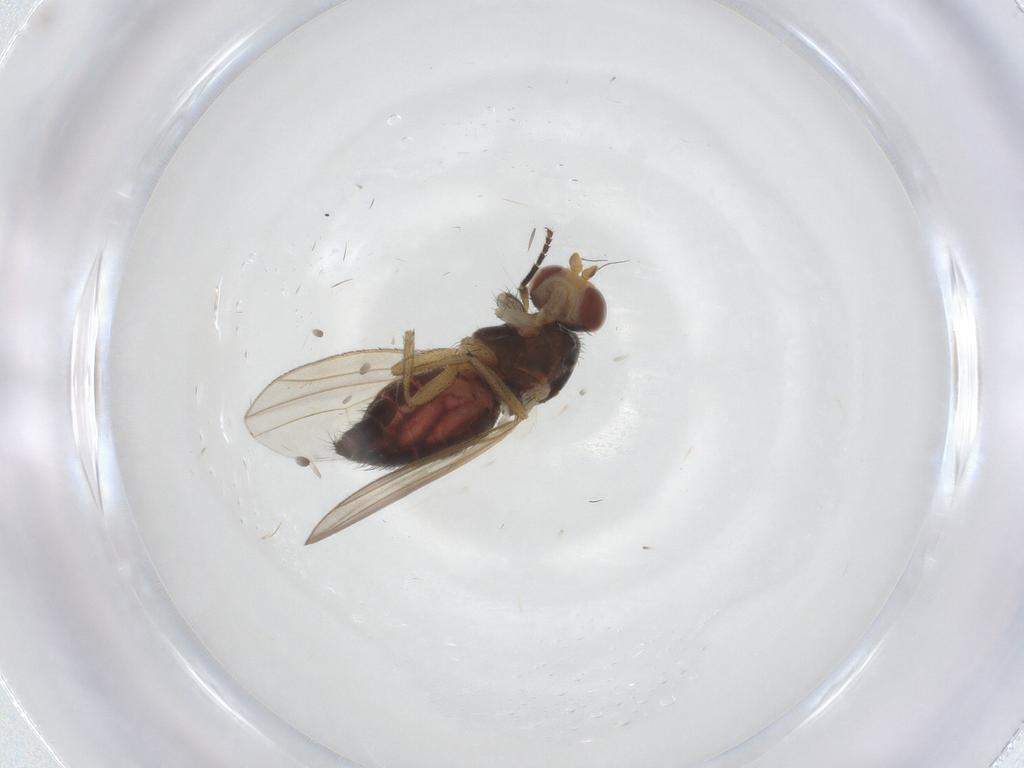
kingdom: Animalia
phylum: Arthropoda
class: Insecta
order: Diptera
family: Heleomyzidae
